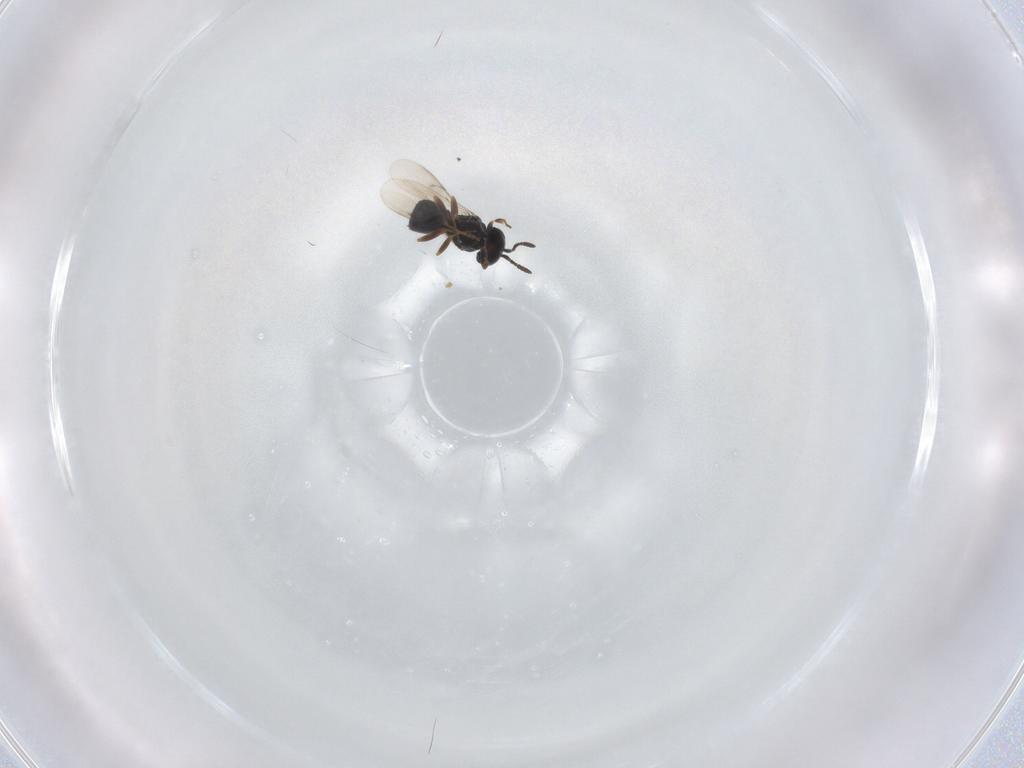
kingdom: Animalia
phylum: Arthropoda
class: Insecta
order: Hymenoptera
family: Scelionidae
